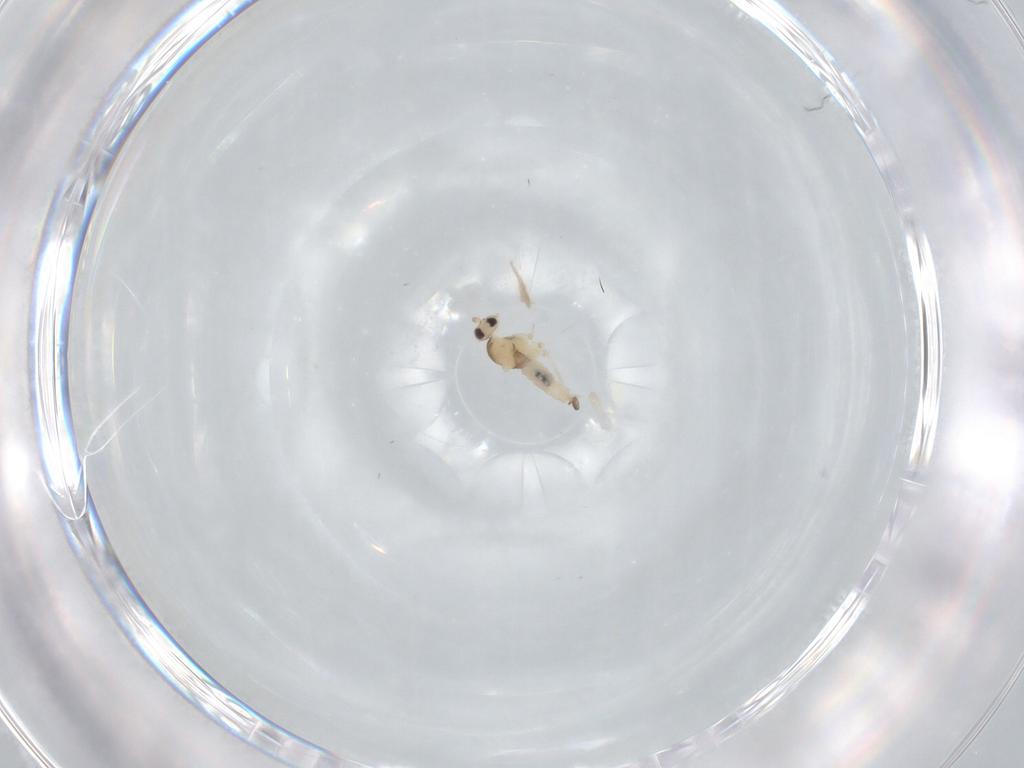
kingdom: Animalia
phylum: Arthropoda
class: Insecta
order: Diptera
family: Cecidomyiidae
